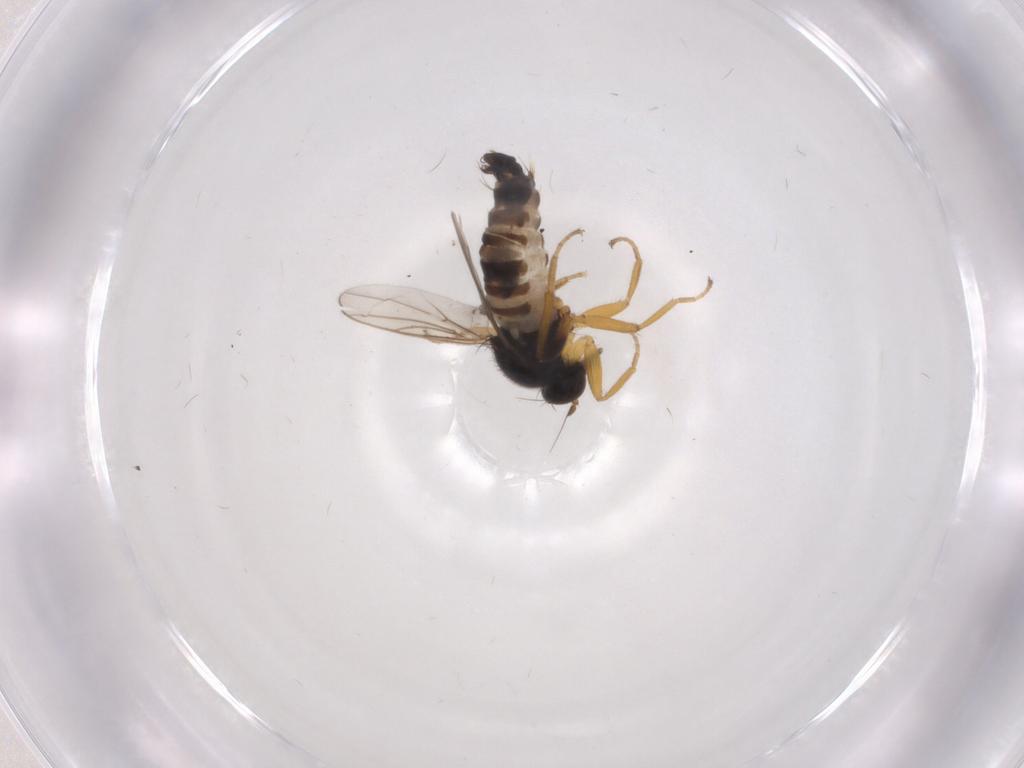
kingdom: Animalia
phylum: Arthropoda
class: Insecta
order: Diptera
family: Hybotidae
